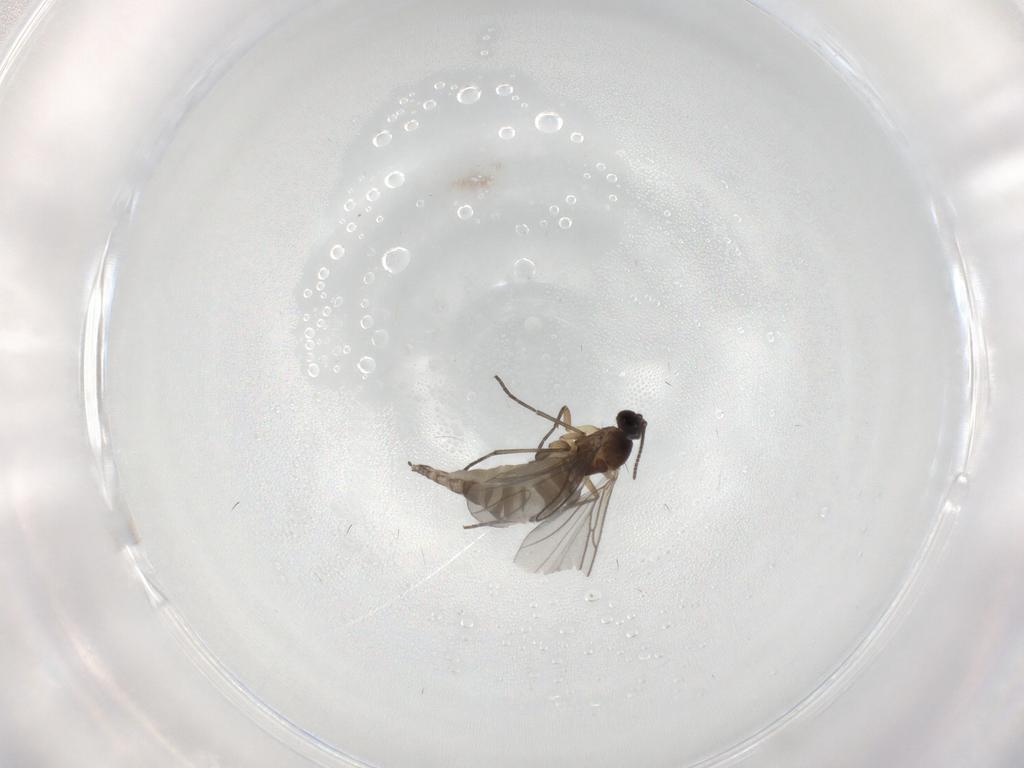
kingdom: Animalia
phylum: Arthropoda
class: Insecta
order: Diptera
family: Sciaridae
